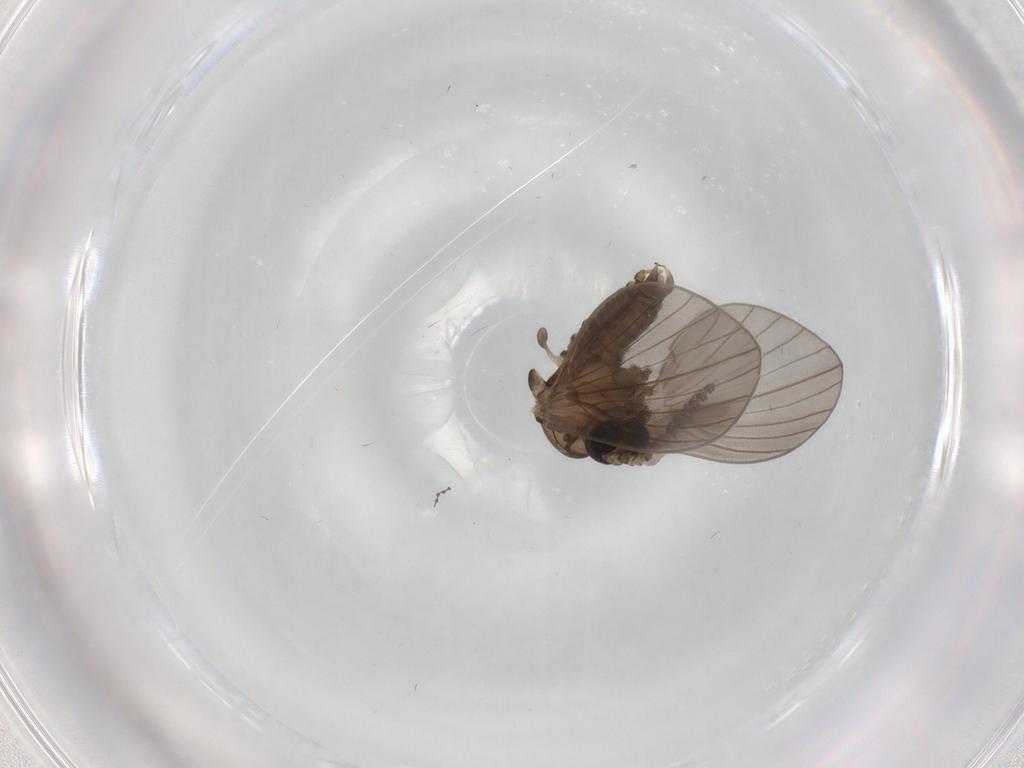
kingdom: Animalia
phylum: Arthropoda
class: Insecta
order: Diptera
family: Psychodidae
